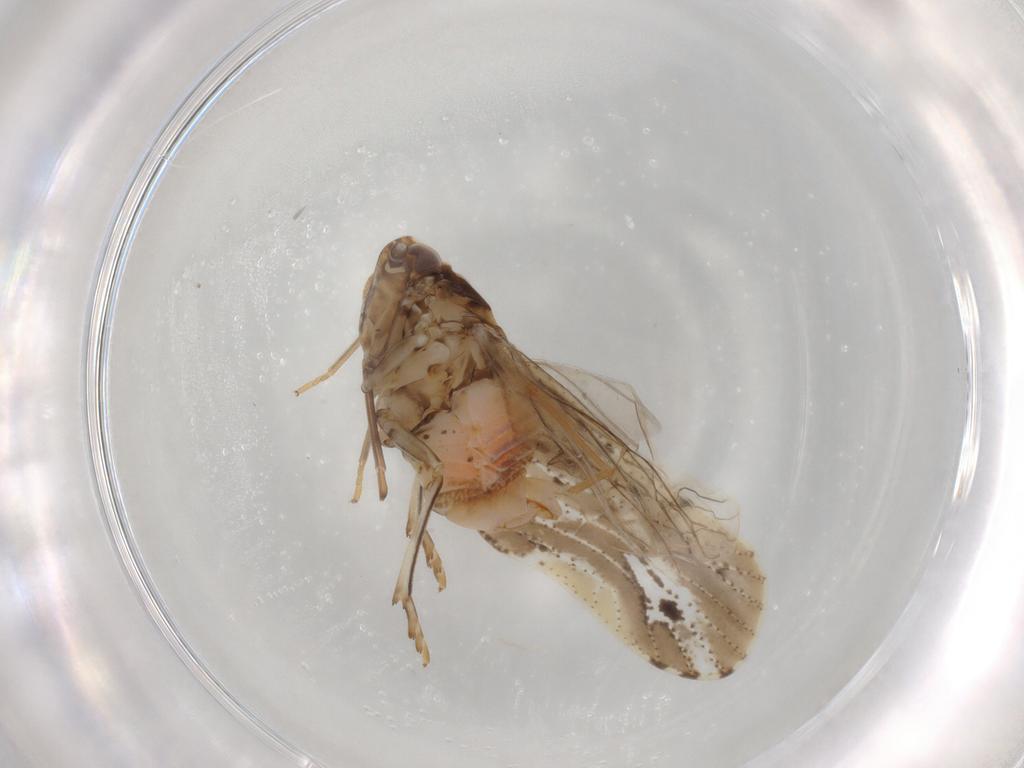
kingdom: Animalia
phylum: Arthropoda
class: Insecta
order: Hemiptera
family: Cixiidae
